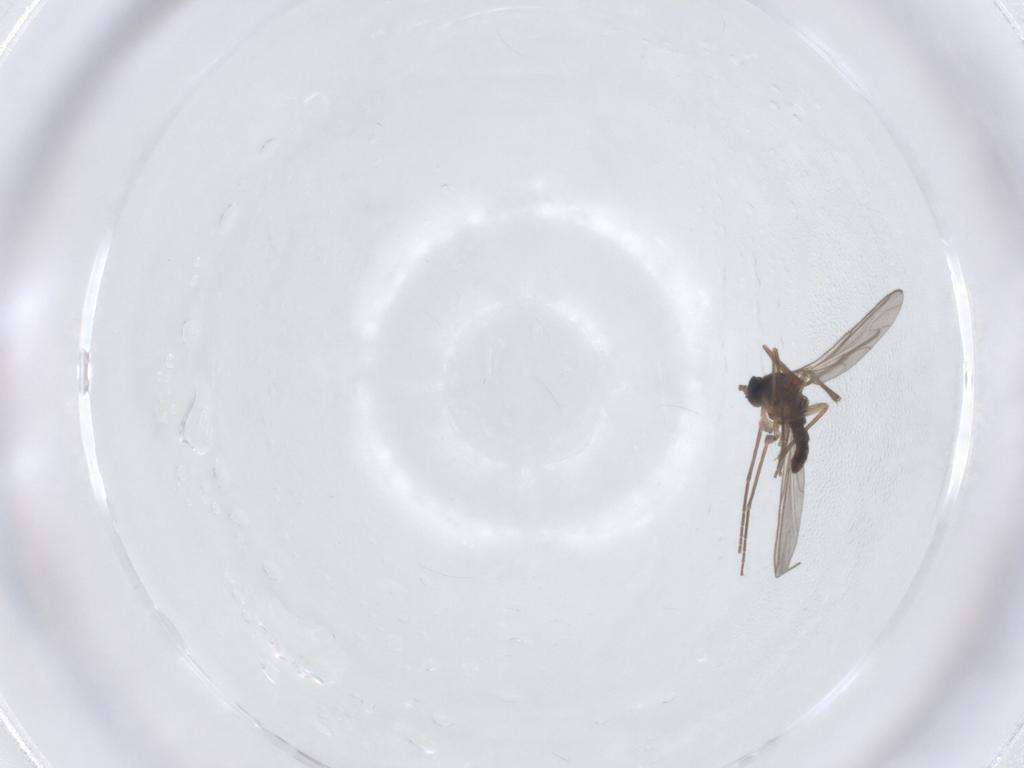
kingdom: Animalia
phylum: Arthropoda
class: Insecta
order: Diptera
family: Sciaridae
